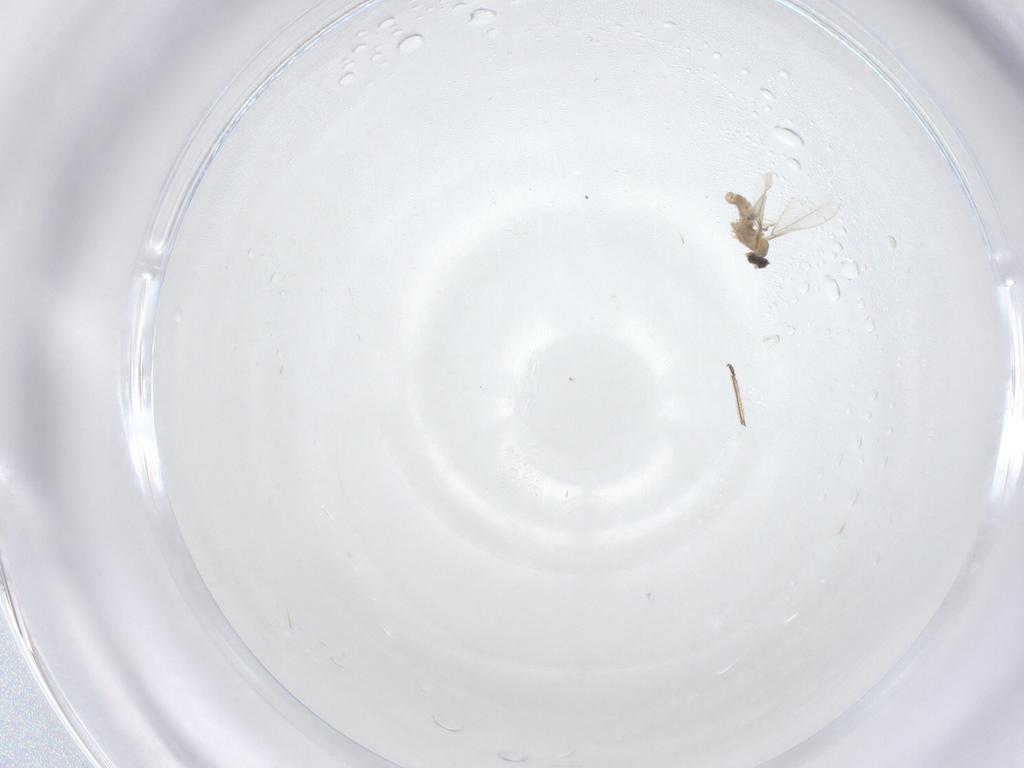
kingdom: Animalia
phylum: Arthropoda
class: Insecta
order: Diptera
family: Cecidomyiidae
